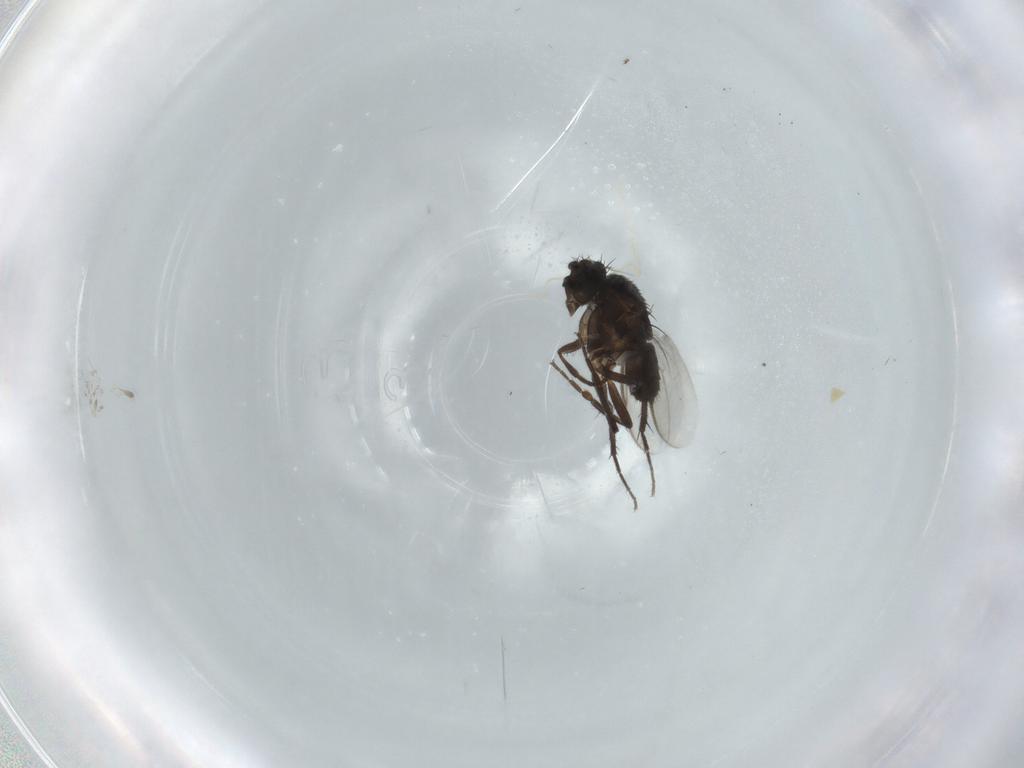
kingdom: Animalia
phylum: Arthropoda
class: Insecta
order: Diptera
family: Sphaeroceridae
